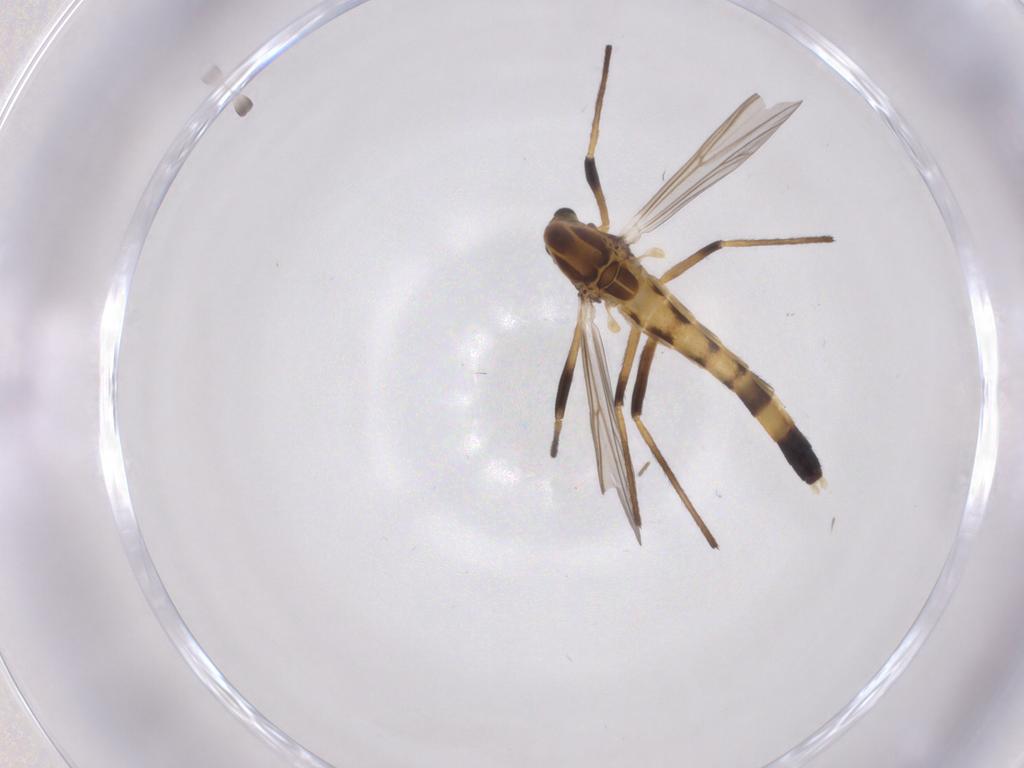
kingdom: Animalia
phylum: Arthropoda
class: Insecta
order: Diptera
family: Chironomidae
